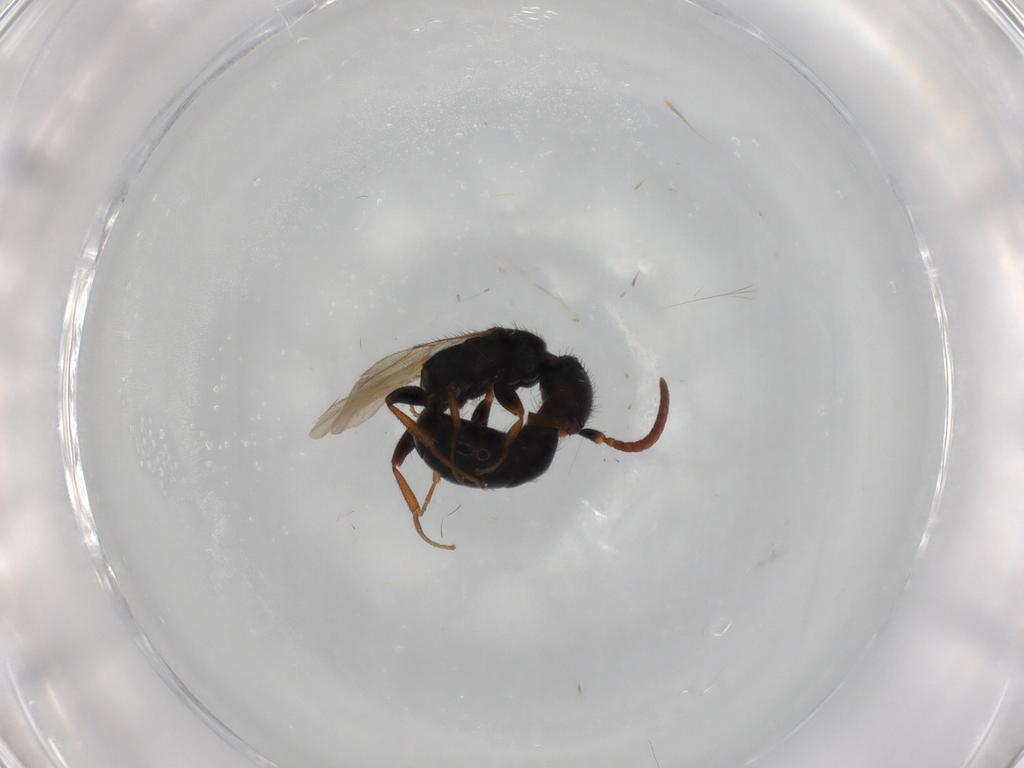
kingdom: Animalia
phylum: Arthropoda
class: Insecta
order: Hymenoptera
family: Bethylidae
